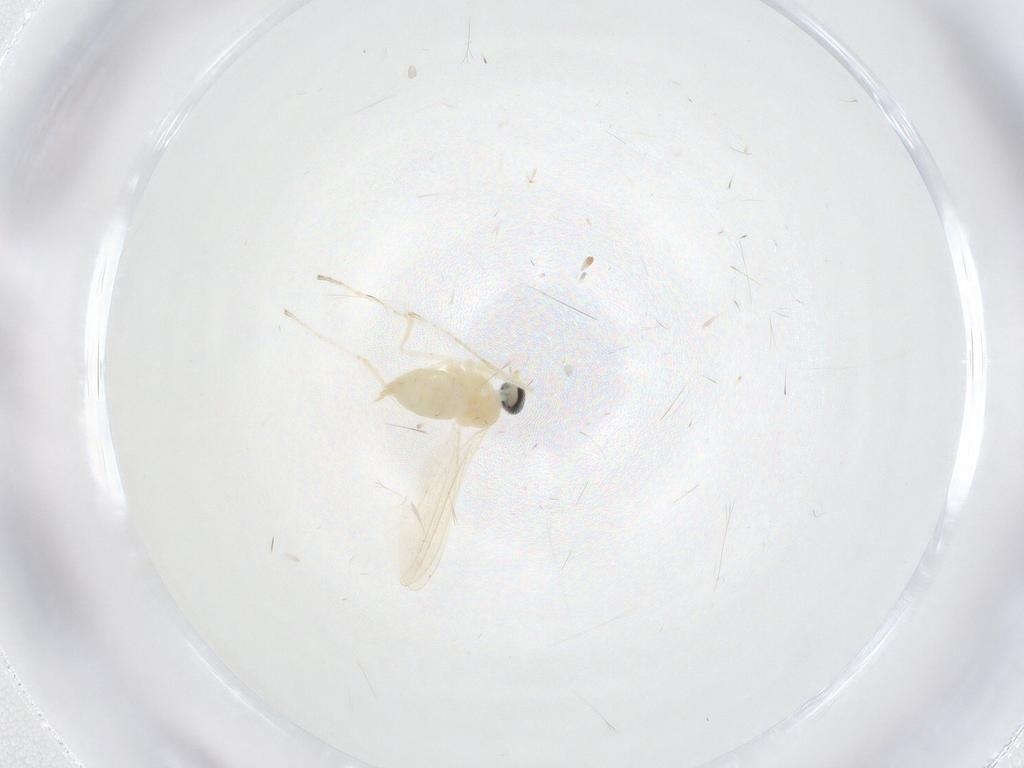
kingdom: Animalia
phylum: Arthropoda
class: Insecta
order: Diptera
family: Cecidomyiidae
